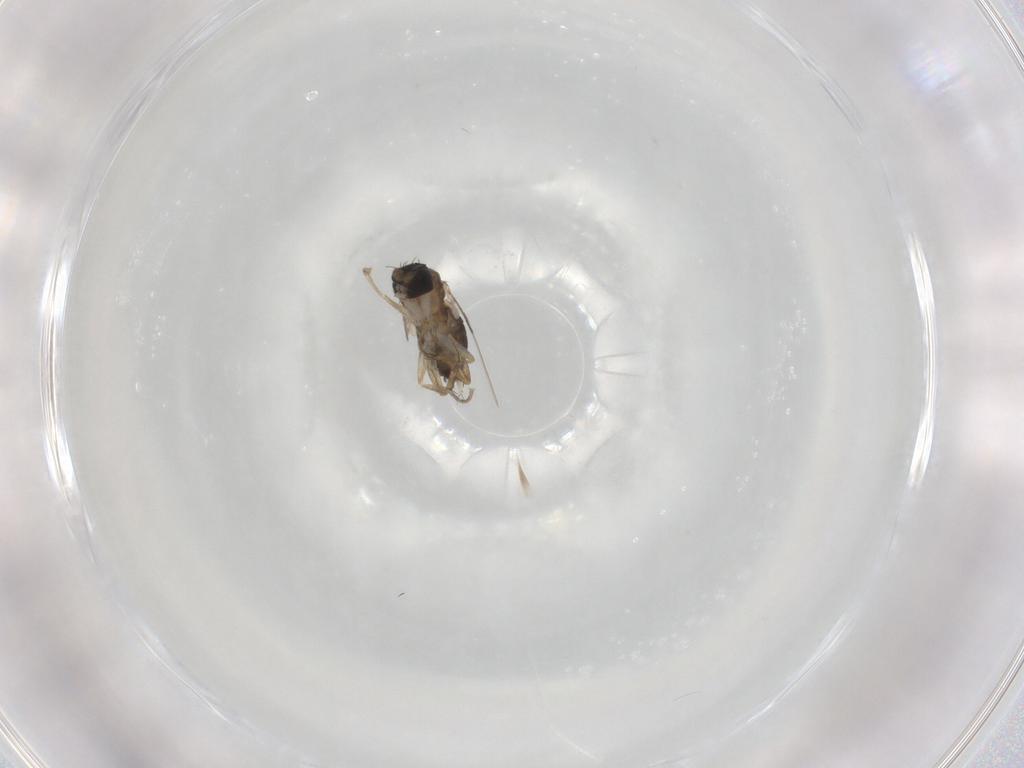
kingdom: Animalia
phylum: Arthropoda
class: Insecta
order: Diptera
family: Phoridae
